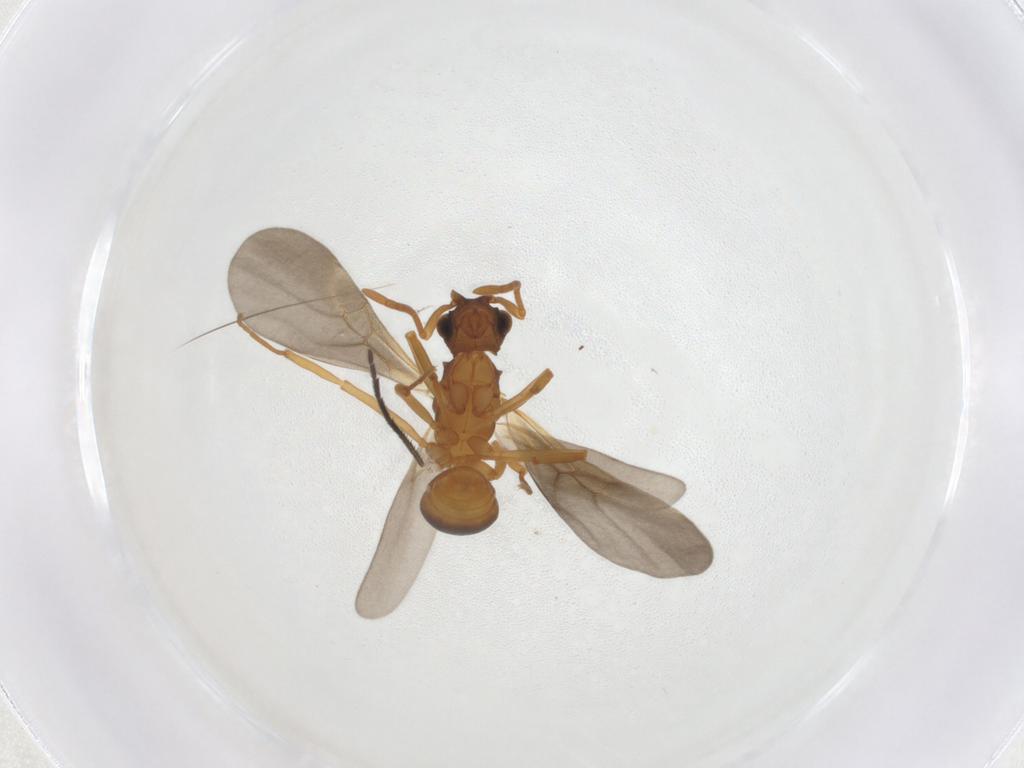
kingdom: Animalia
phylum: Arthropoda
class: Insecta
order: Hymenoptera
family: Formicidae
